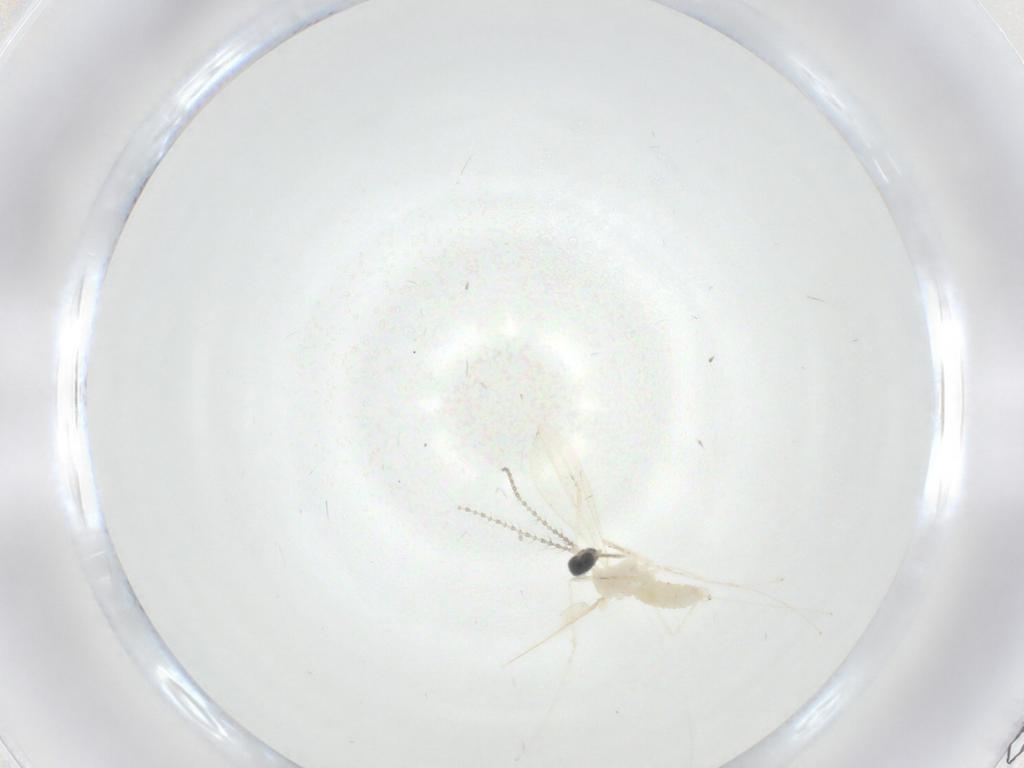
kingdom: Animalia
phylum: Arthropoda
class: Insecta
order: Diptera
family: Cecidomyiidae
